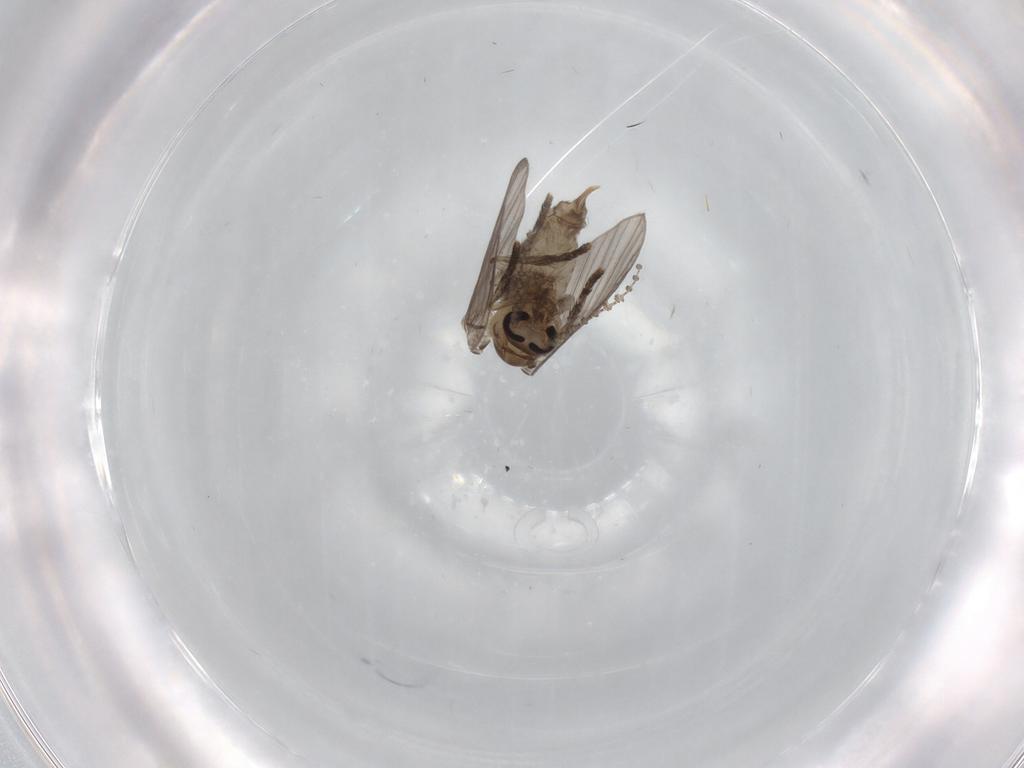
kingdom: Animalia
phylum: Arthropoda
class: Insecta
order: Diptera
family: Psychodidae
